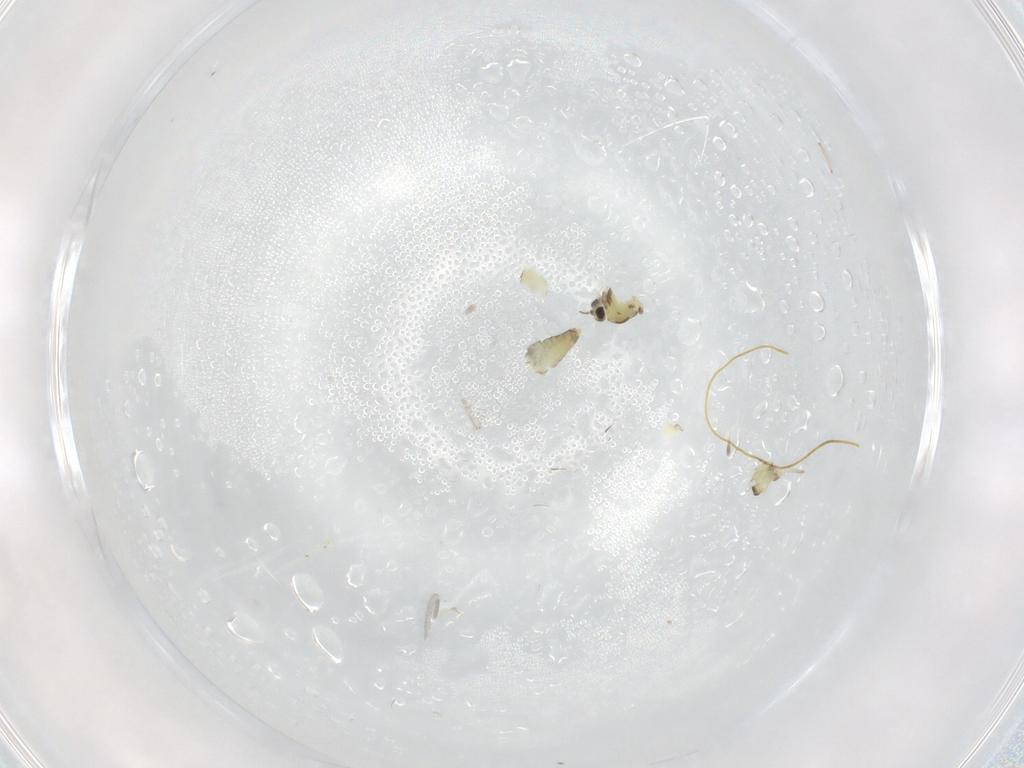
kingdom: Animalia
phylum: Arthropoda
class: Insecta
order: Diptera
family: Chironomidae
